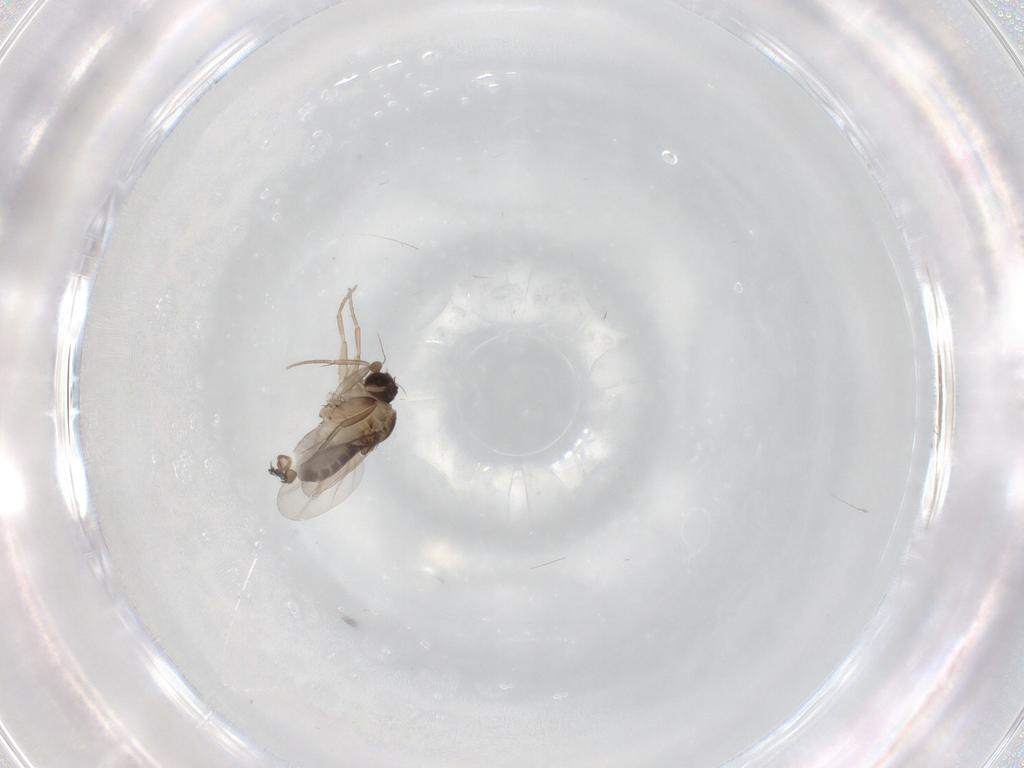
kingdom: Animalia
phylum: Arthropoda
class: Insecta
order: Diptera
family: Phoridae
